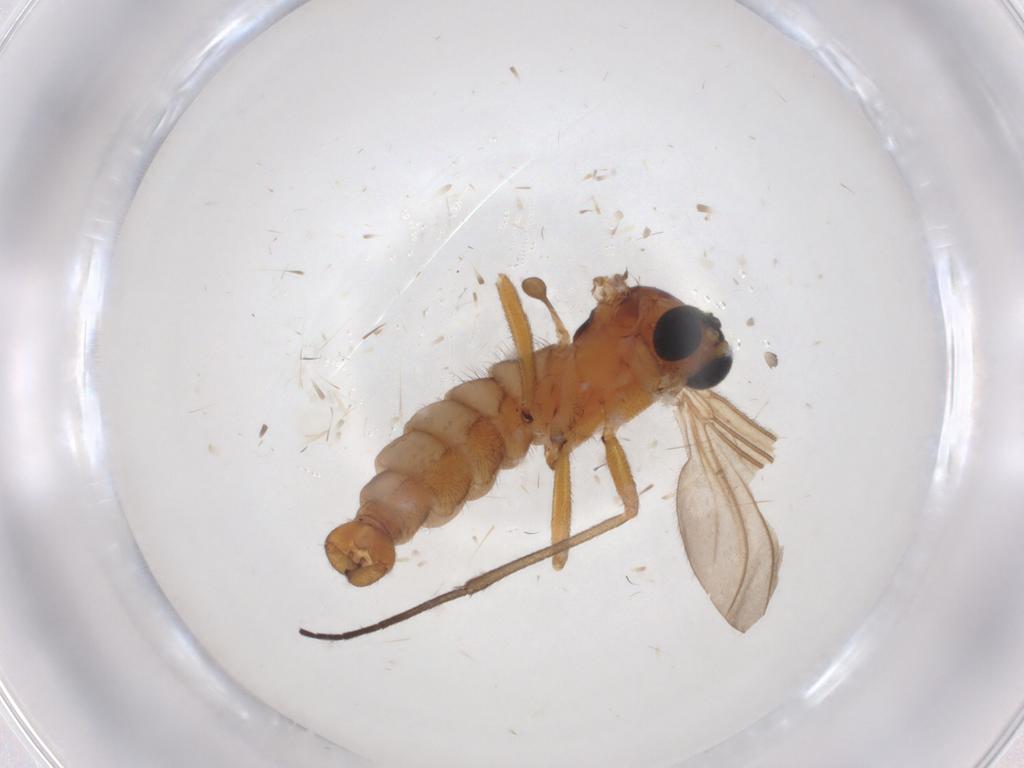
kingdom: Animalia
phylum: Arthropoda
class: Insecta
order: Diptera
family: Sciaridae
